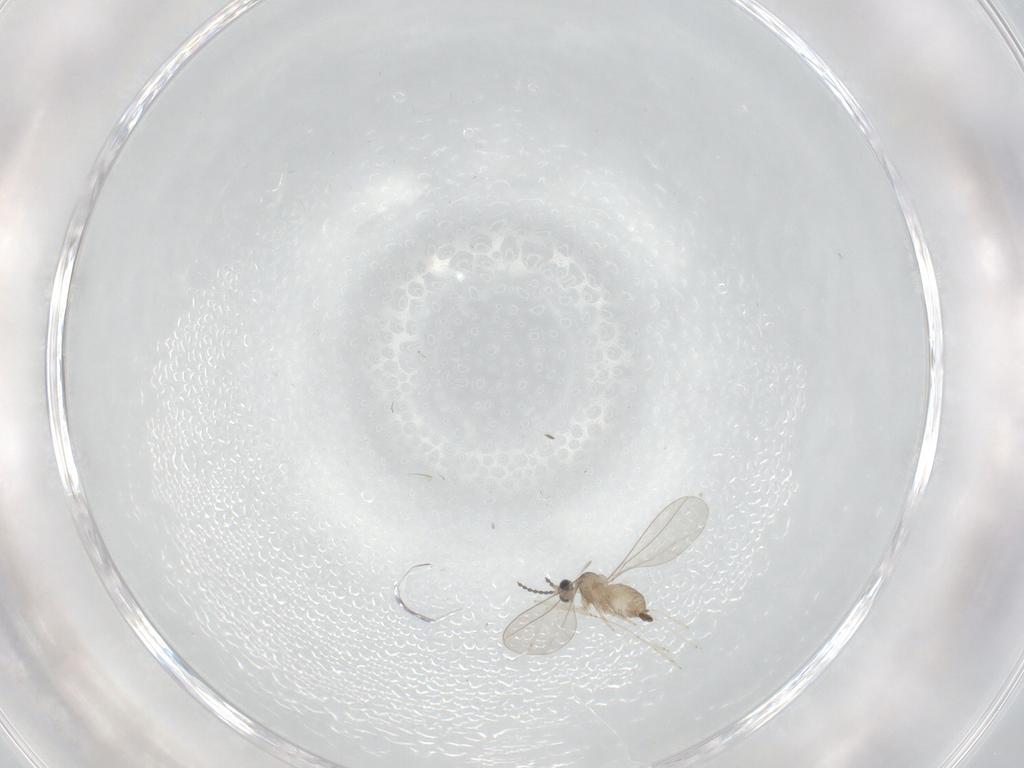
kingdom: Animalia
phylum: Arthropoda
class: Insecta
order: Diptera
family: Cecidomyiidae
